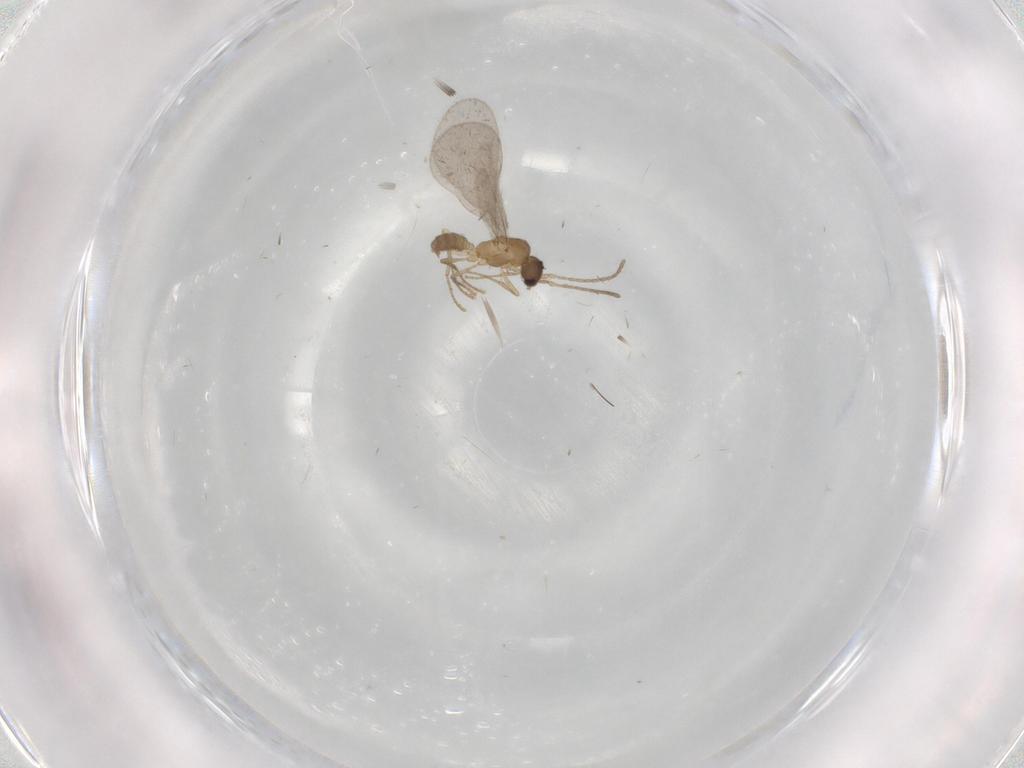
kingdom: Animalia
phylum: Arthropoda
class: Insecta
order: Hymenoptera
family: Formicidae
